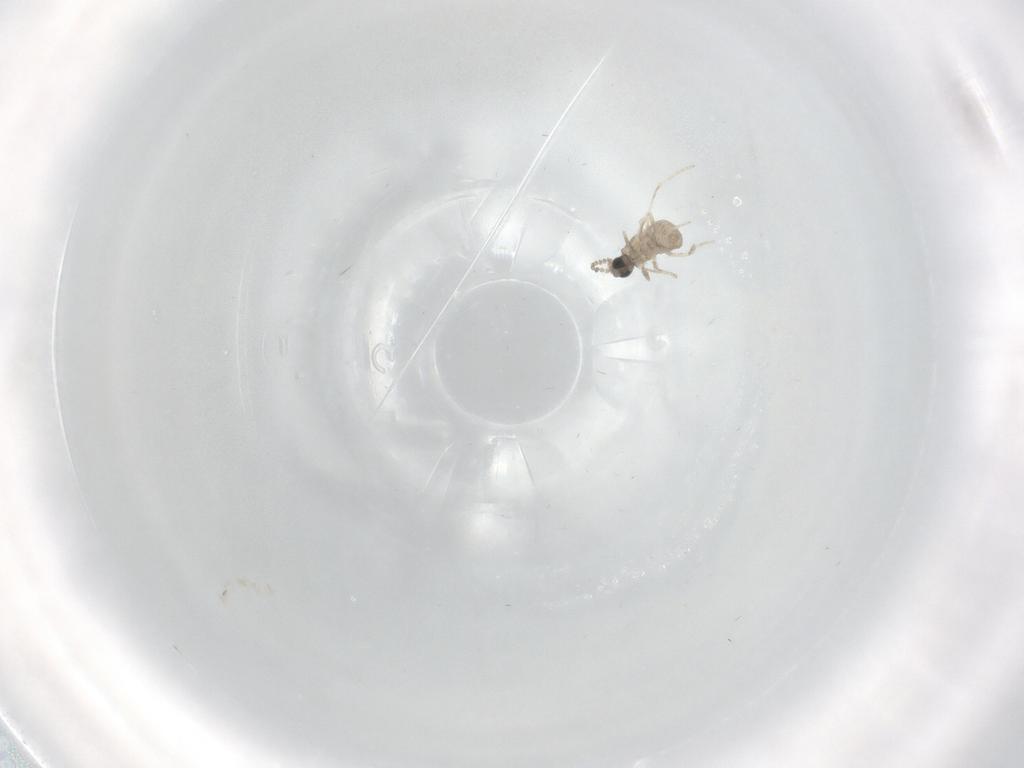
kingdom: Animalia
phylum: Arthropoda
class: Insecta
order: Diptera
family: Cecidomyiidae
